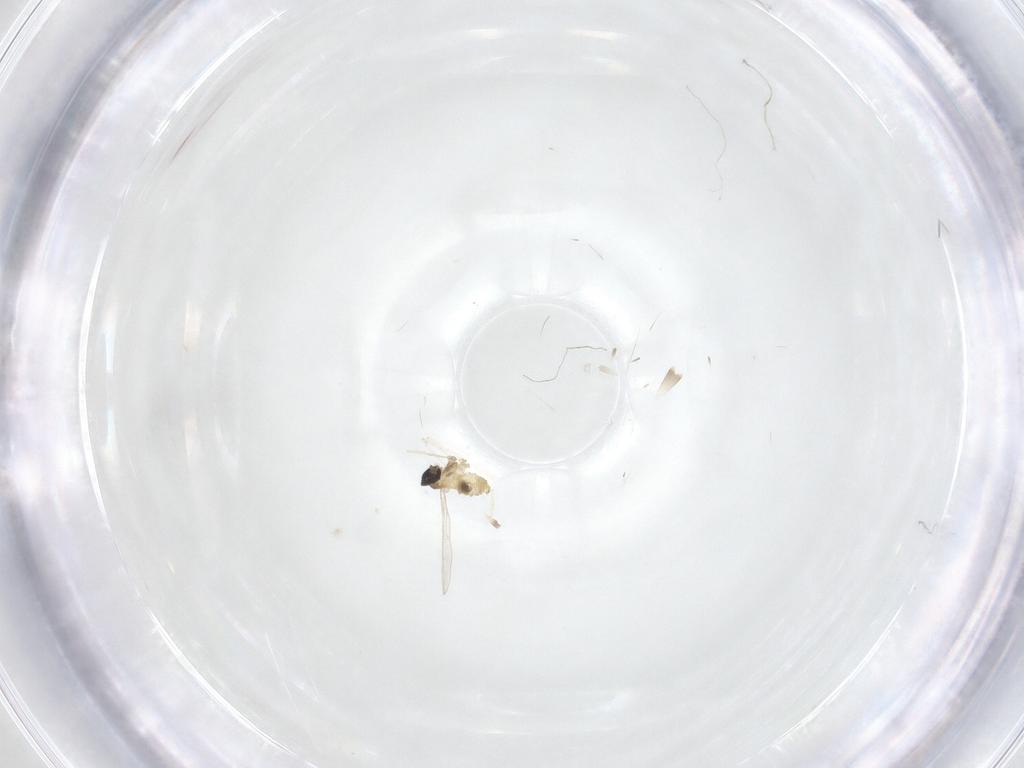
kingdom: Animalia
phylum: Arthropoda
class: Insecta
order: Diptera
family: Cecidomyiidae
